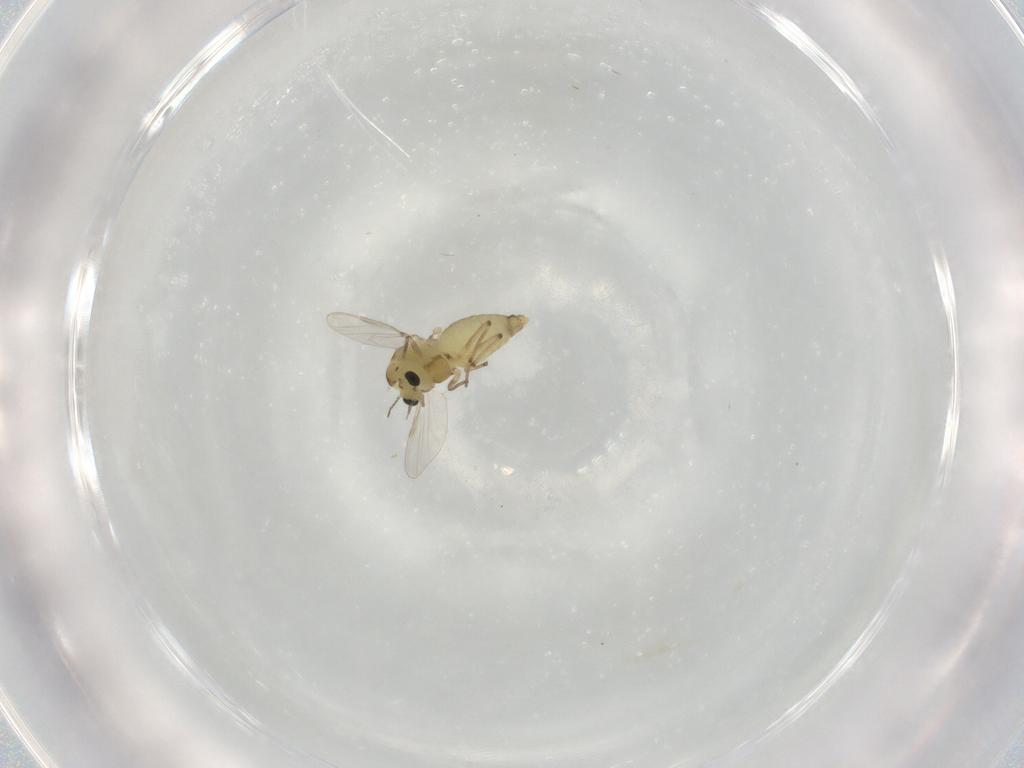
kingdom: Animalia
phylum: Arthropoda
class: Insecta
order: Diptera
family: Chironomidae
